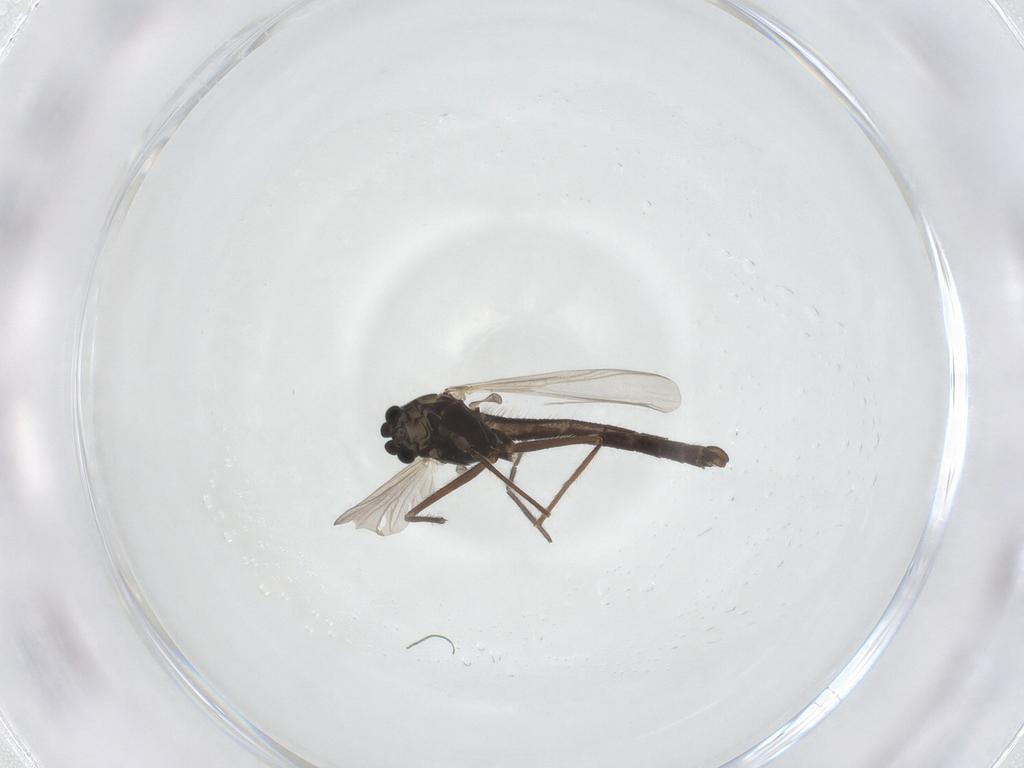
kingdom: Animalia
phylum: Arthropoda
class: Insecta
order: Diptera
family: Chironomidae
